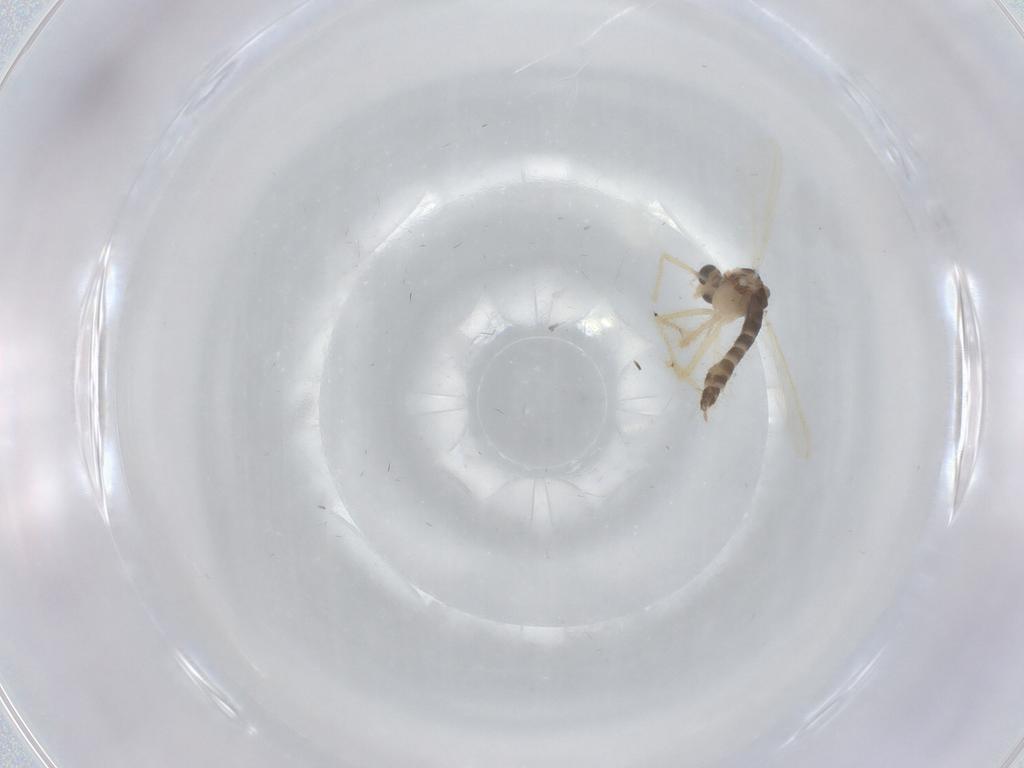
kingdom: Animalia
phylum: Arthropoda
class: Insecta
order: Diptera
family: Chironomidae
